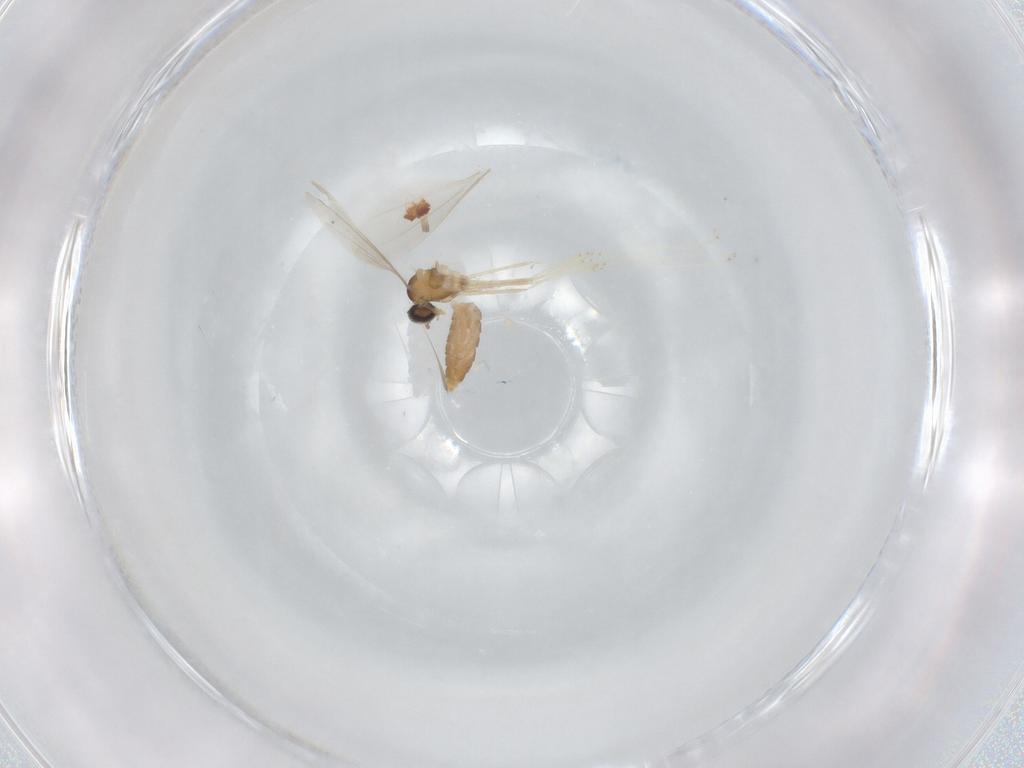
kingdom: Animalia
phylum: Arthropoda
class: Insecta
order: Diptera
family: Cecidomyiidae
